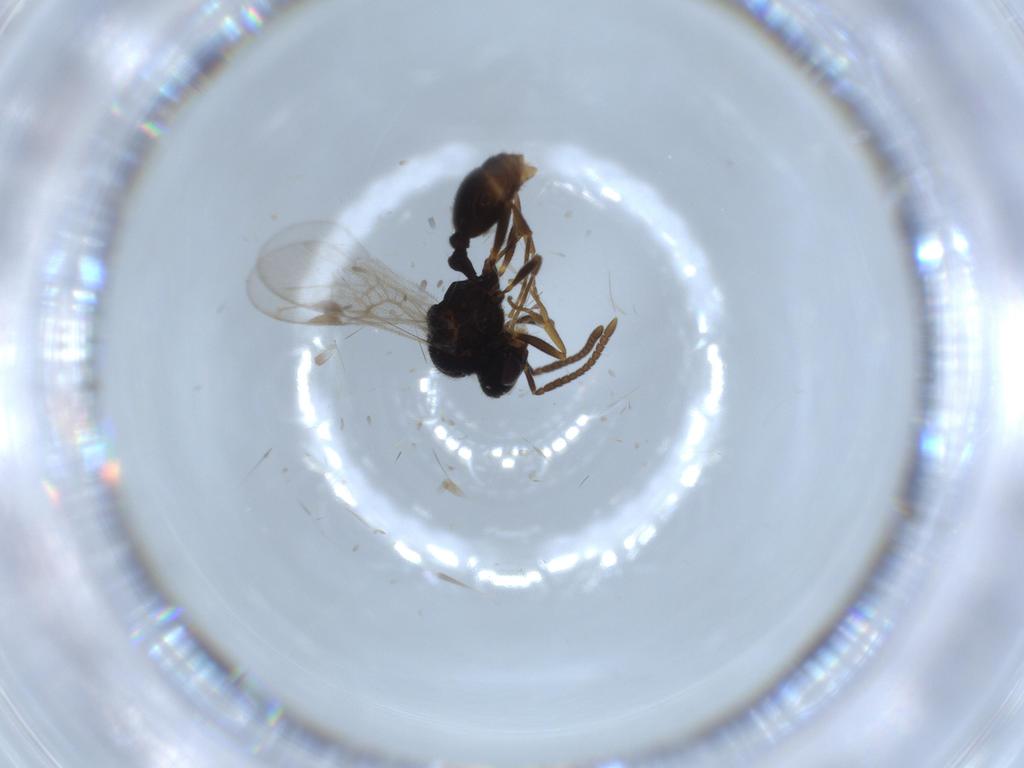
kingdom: Animalia
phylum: Arthropoda
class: Insecta
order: Hymenoptera
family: Formicidae
